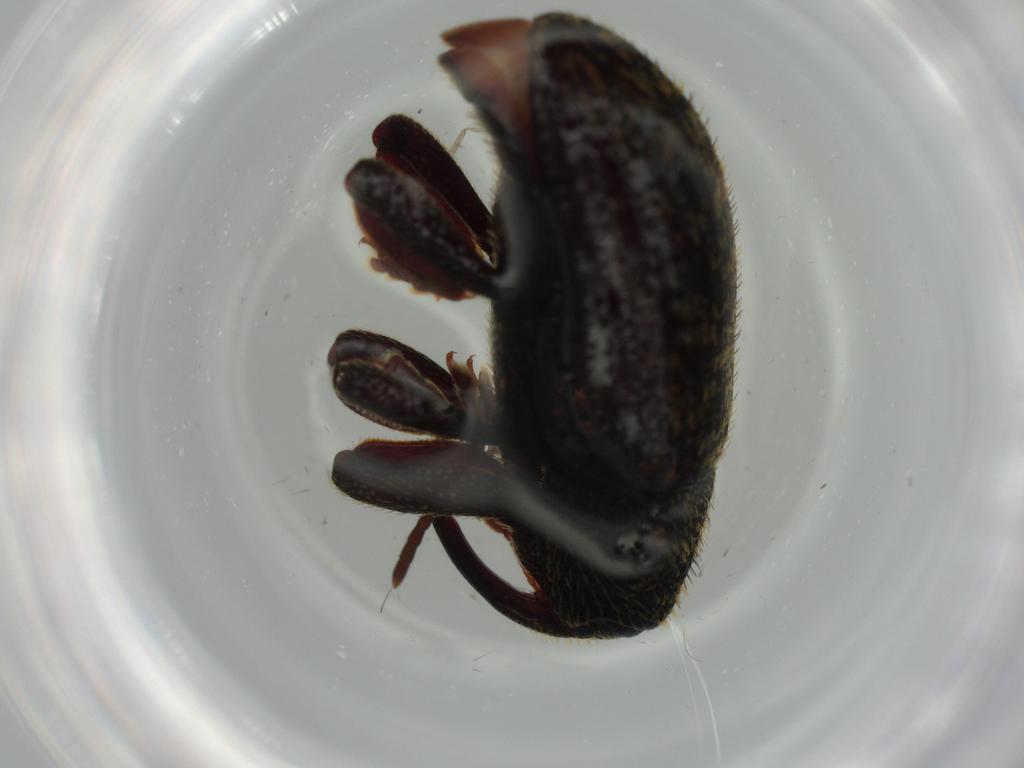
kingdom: Animalia
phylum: Arthropoda
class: Insecta
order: Coleoptera
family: Erotylidae
